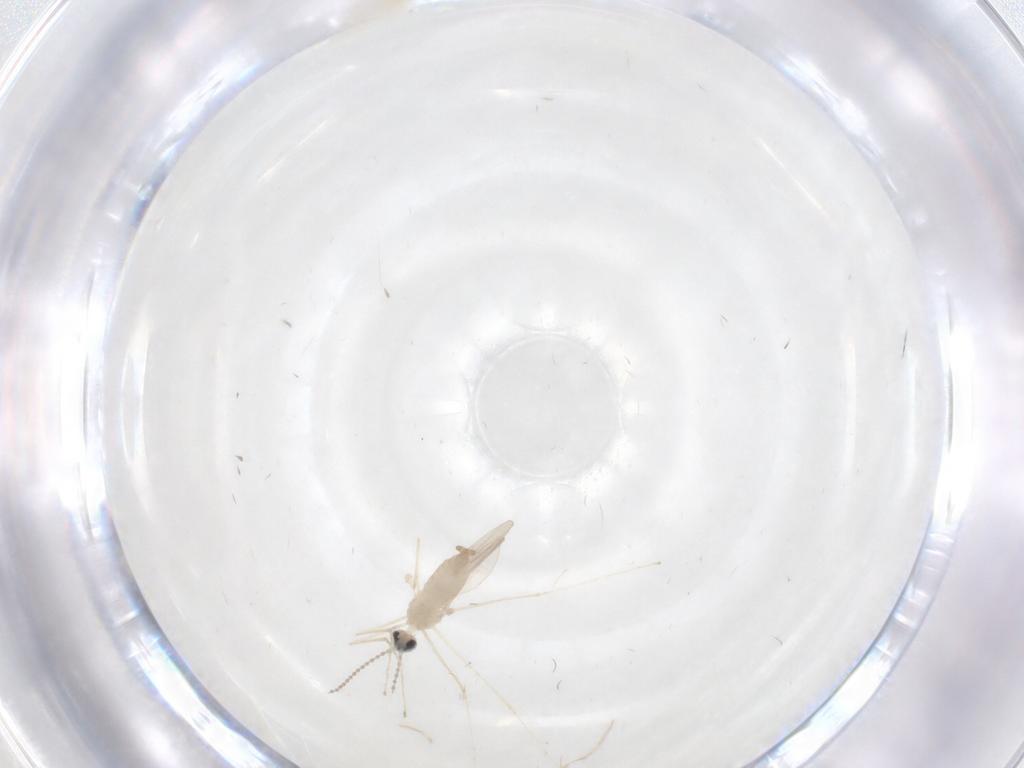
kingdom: Animalia
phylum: Arthropoda
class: Insecta
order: Diptera
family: Cecidomyiidae
